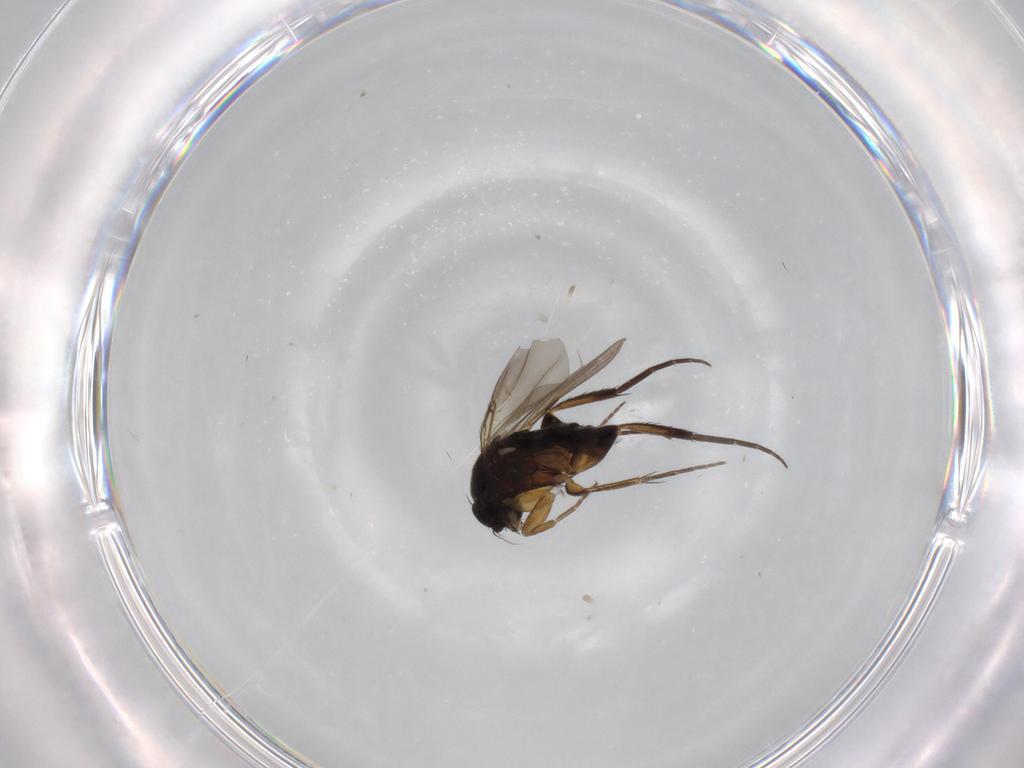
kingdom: Animalia
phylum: Arthropoda
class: Insecta
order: Diptera
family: Phoridae
